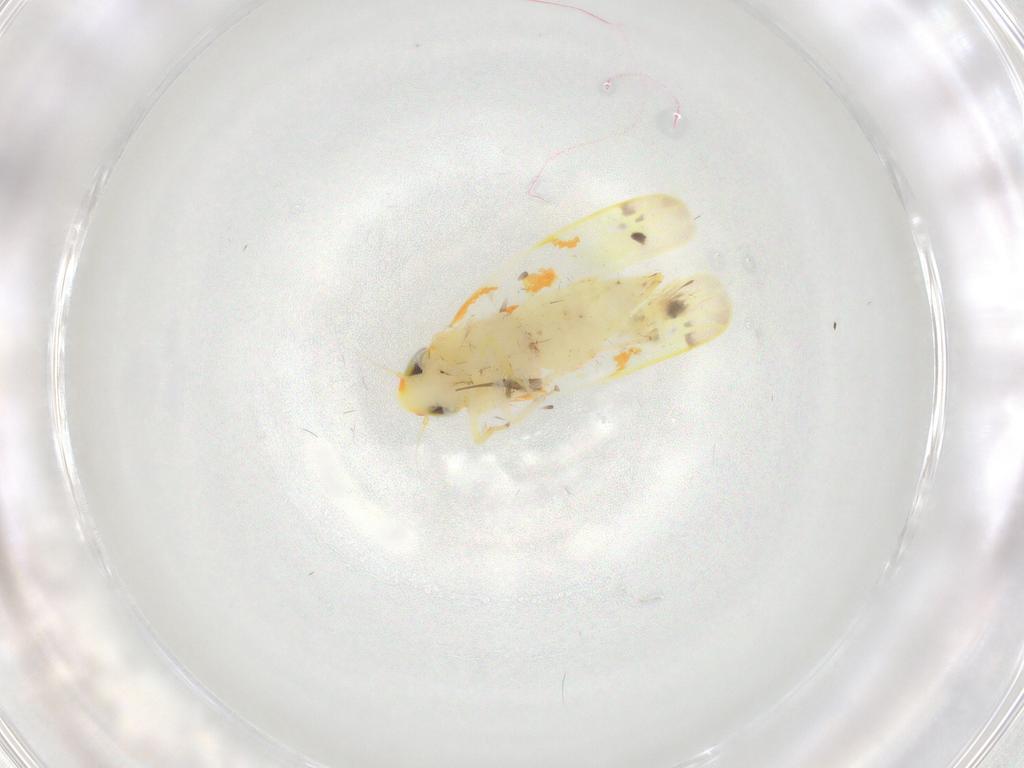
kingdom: Animalia
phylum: Arthropoda
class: Insecta
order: Hemiptera
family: Cicadellidae
